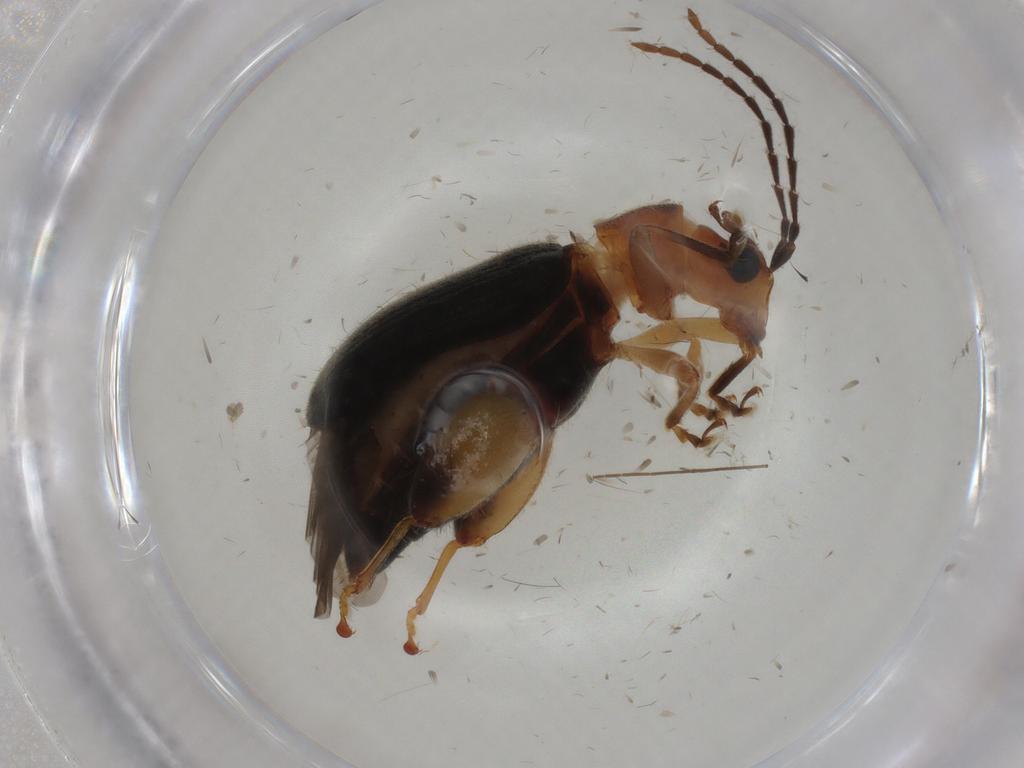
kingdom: Animalia
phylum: Arthropoda
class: Insecta
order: Coleoptera
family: Chrysomelidae
